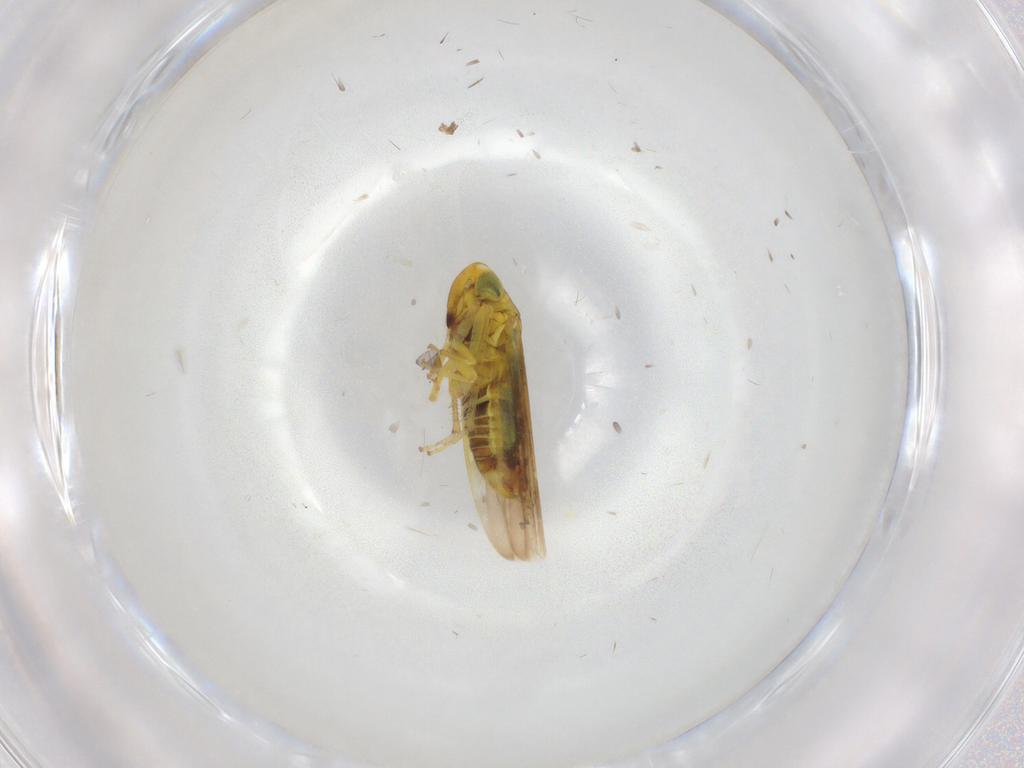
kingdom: Animalia
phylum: Arthropoda
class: Insecta
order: Hemiptera
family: Cicadellidae
